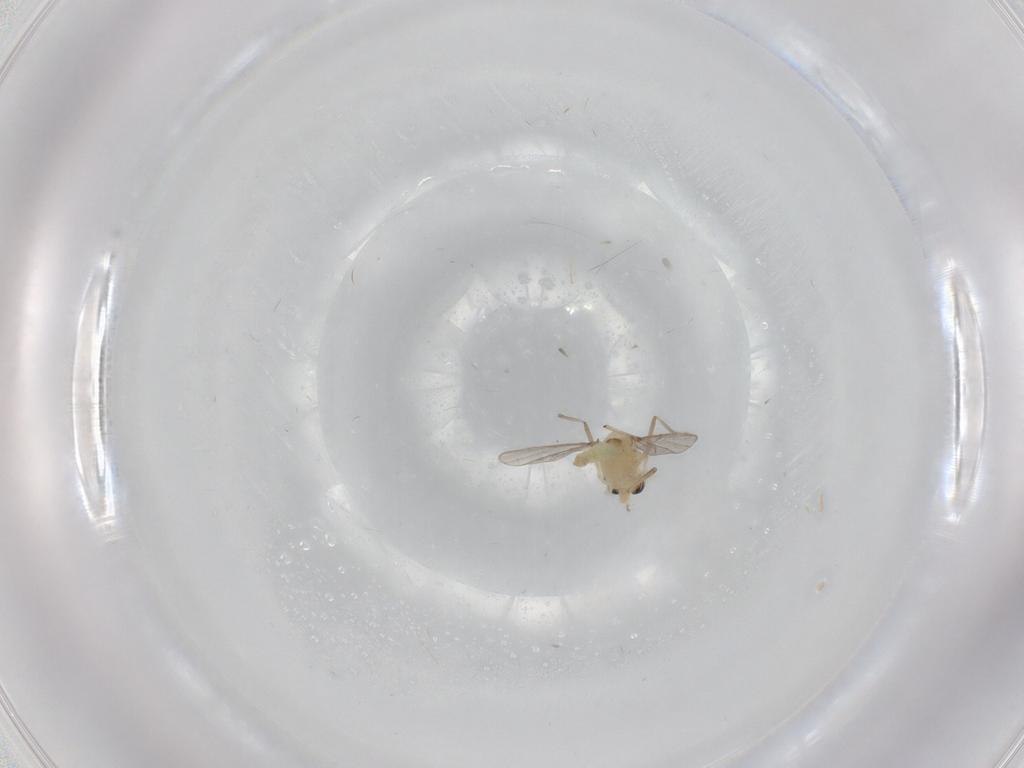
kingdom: Animalia
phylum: Arthropoda
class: Insecta
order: Diptera
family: Chironomidae
